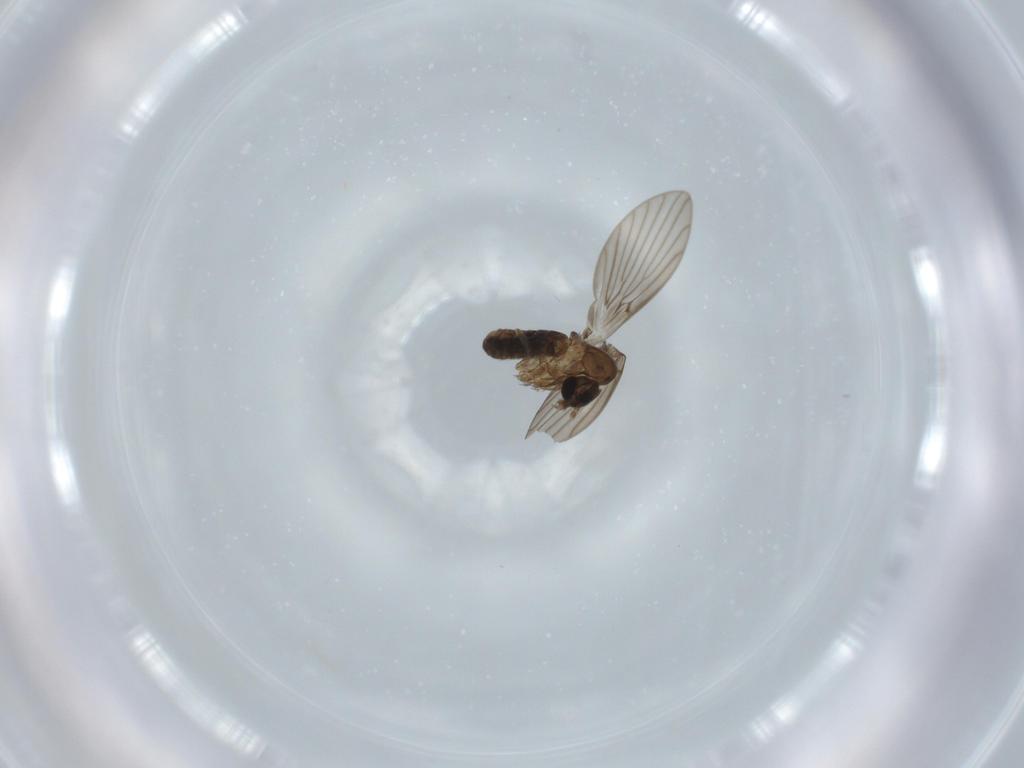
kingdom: Animalia
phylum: Arthropoda
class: Insecta
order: Diptera
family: Psychodidae
